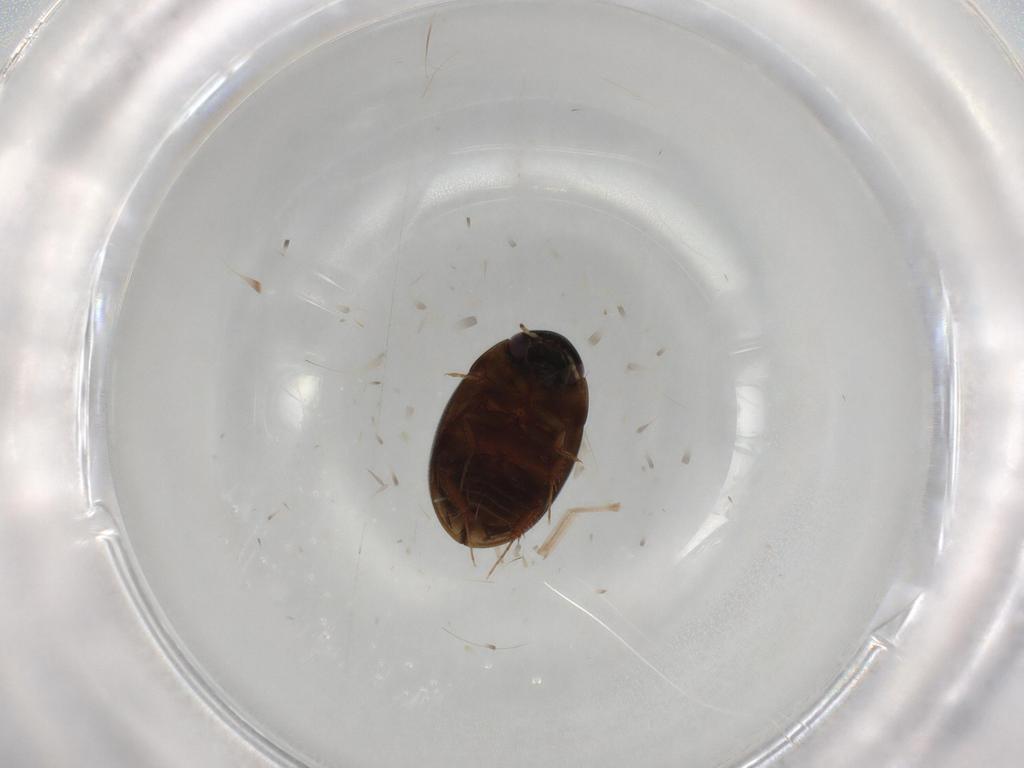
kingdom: Animalia
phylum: Arthropoda
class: Insecta
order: Coleoptera
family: Hydrophilidae
